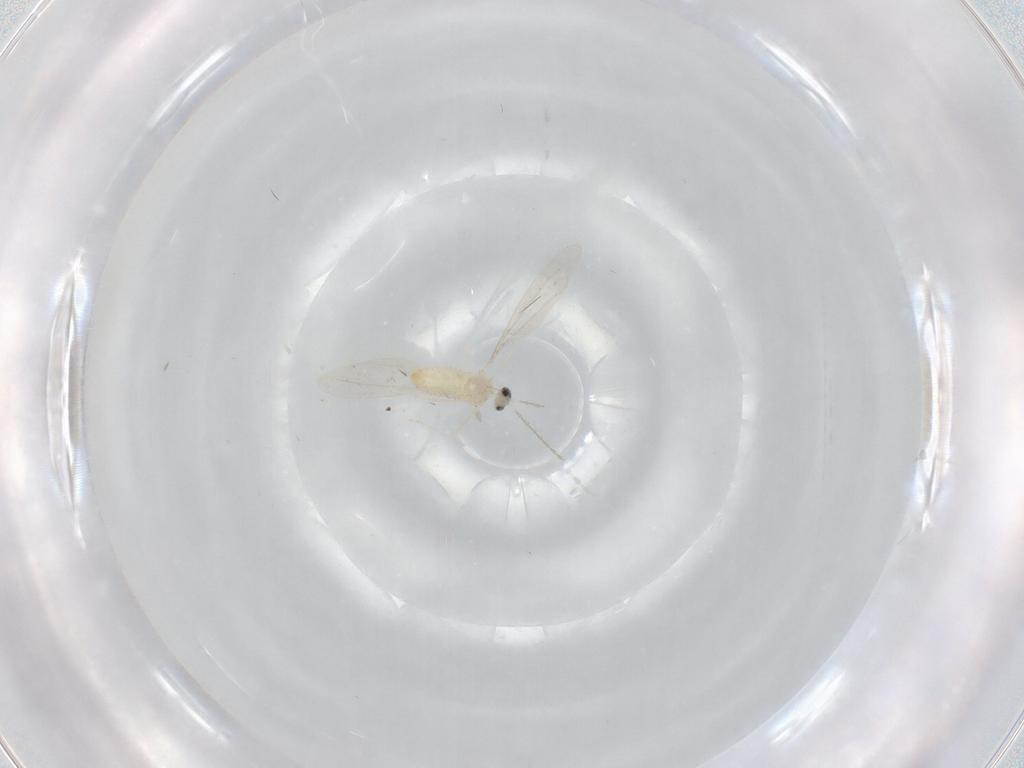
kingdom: Animalia
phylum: Arthropoda
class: Insecta
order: Diptera
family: Cecidomyiidae
